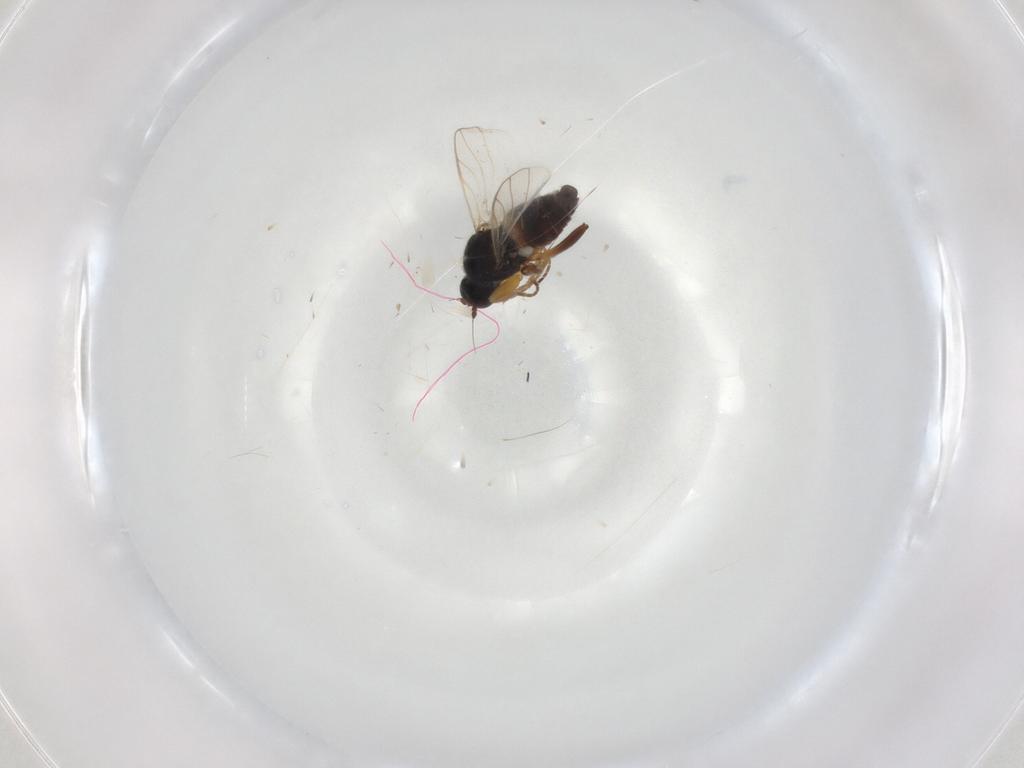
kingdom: Animalia
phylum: Arthropoda
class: Insecta
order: Diptera
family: Hybotidae
